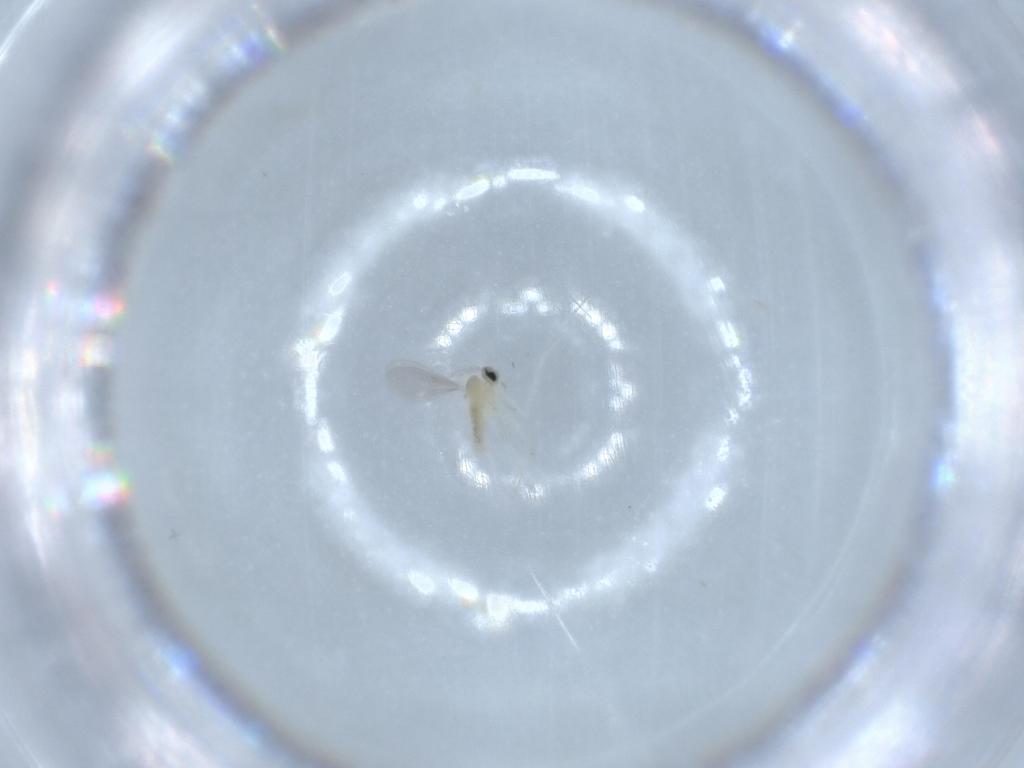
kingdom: Animalia
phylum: Arthropoda
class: Insecta
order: Diptera
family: Cecidomyiidae
